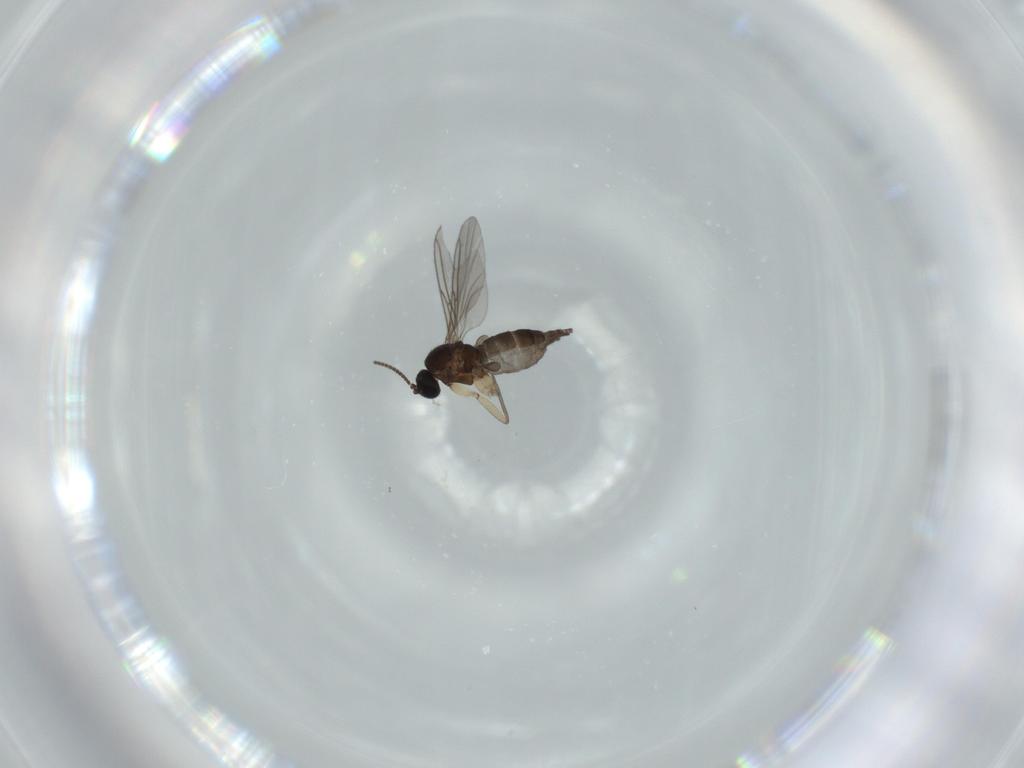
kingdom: Animalia
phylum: Arthropoda
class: Insecta
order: Diptera
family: Sciaridae
